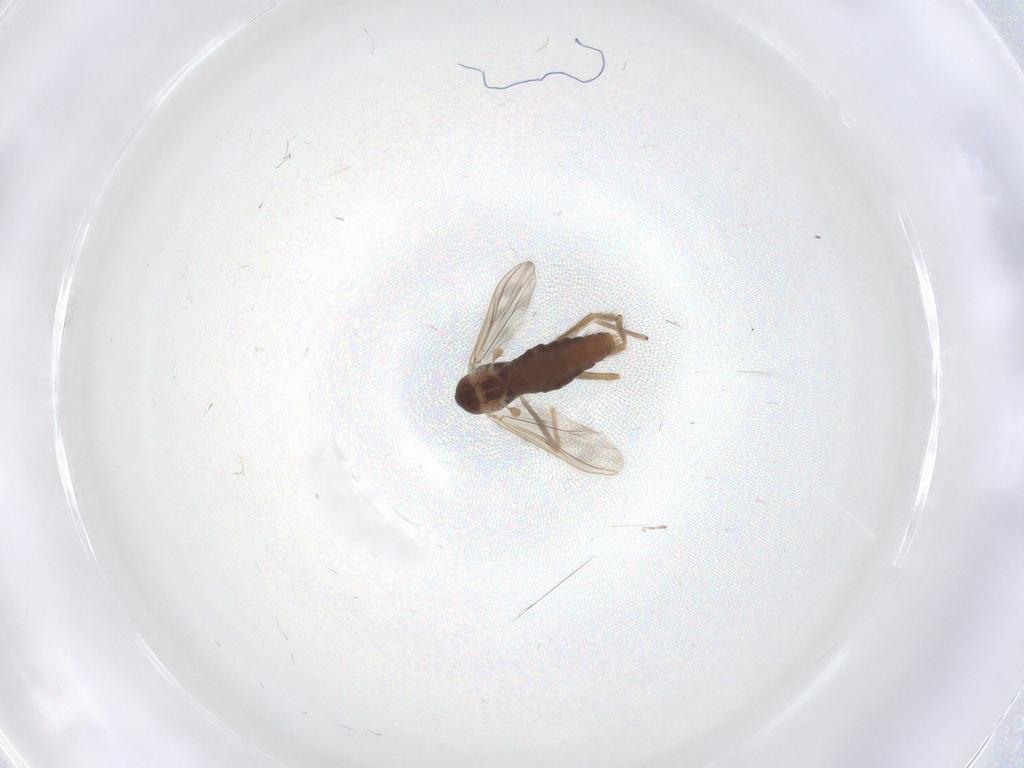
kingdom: Animalia
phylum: Arthropoda
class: Insecta
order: Diptera
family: Chironomidae
